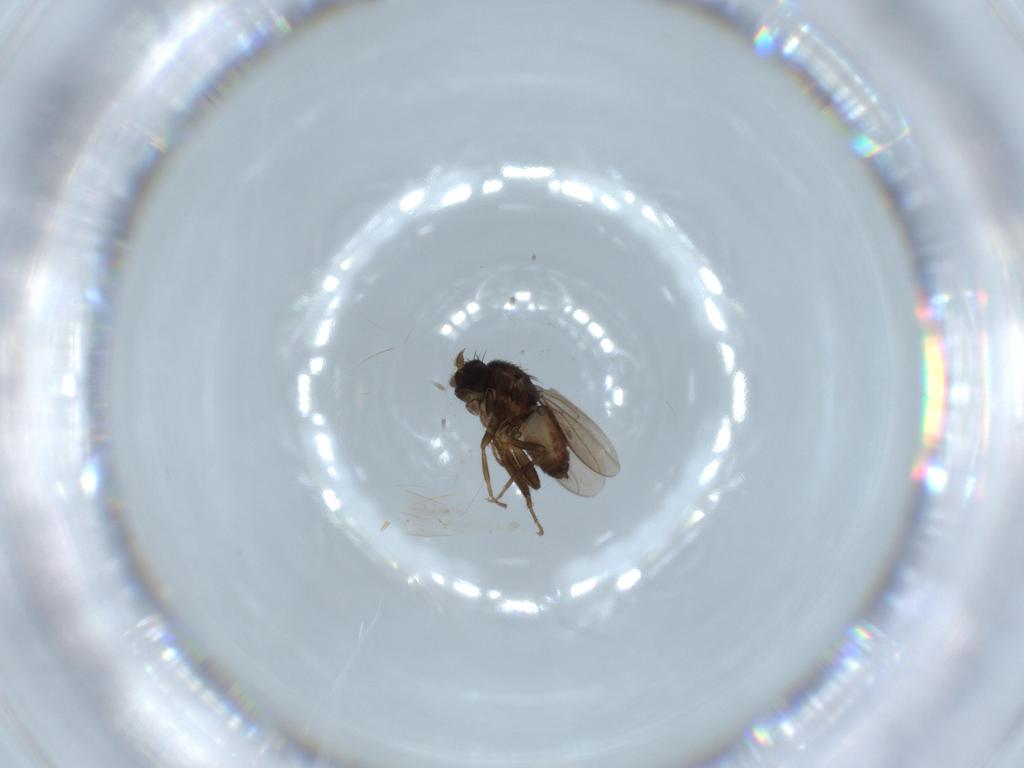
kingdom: Animalia
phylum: Arthropoda
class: Insecta
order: Diptera
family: Sphaeroceridae
